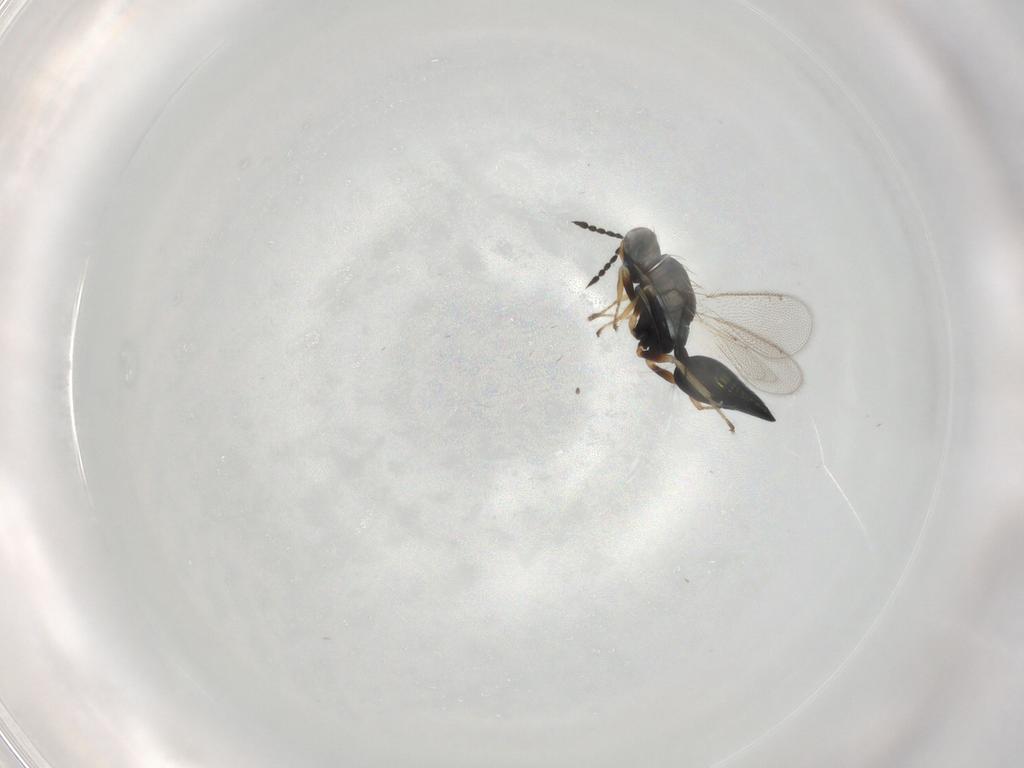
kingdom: Animalia
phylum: Arthropoda
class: Insecta
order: Hymenoptera
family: Eulophidae
